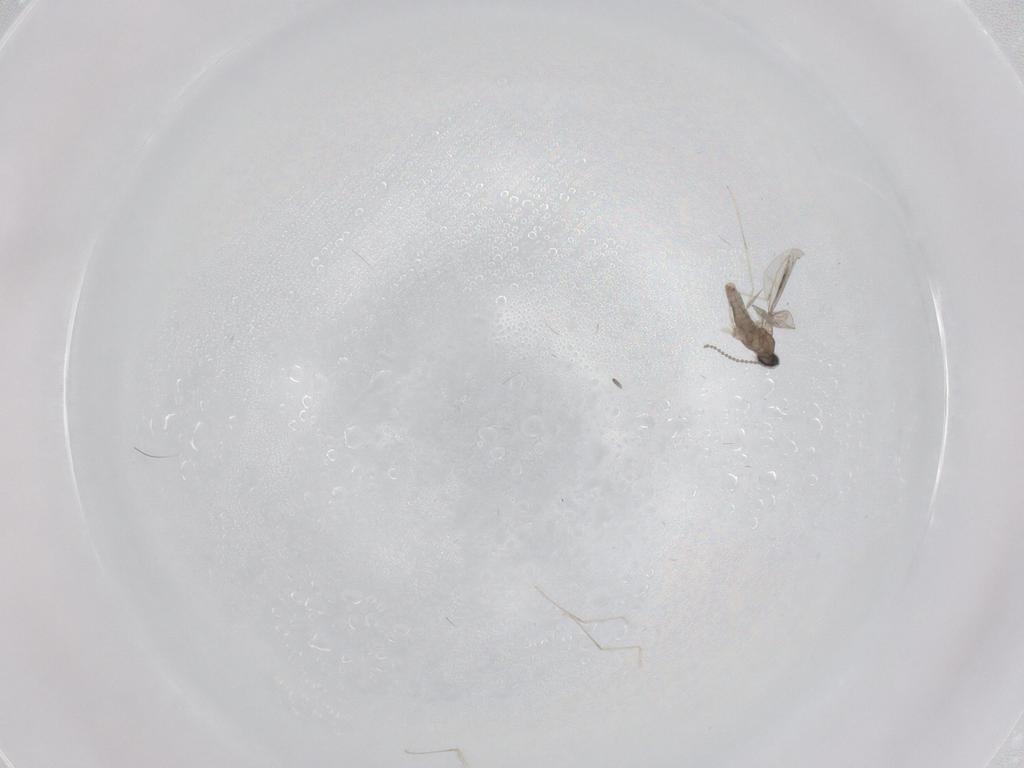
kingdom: Animalia
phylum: Arthropoda
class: Insecta
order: Diptera
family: Cecidomyiidae
